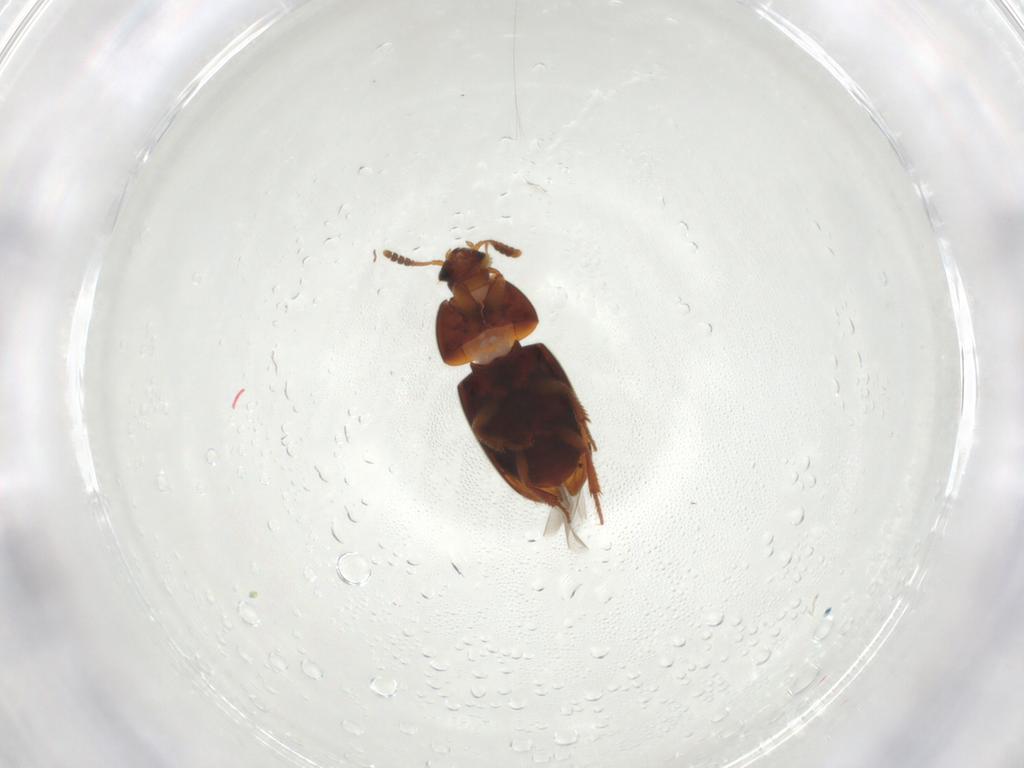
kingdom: Animalia
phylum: Arthropoda
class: Insecta
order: Coleoptera
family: Leiodidae
